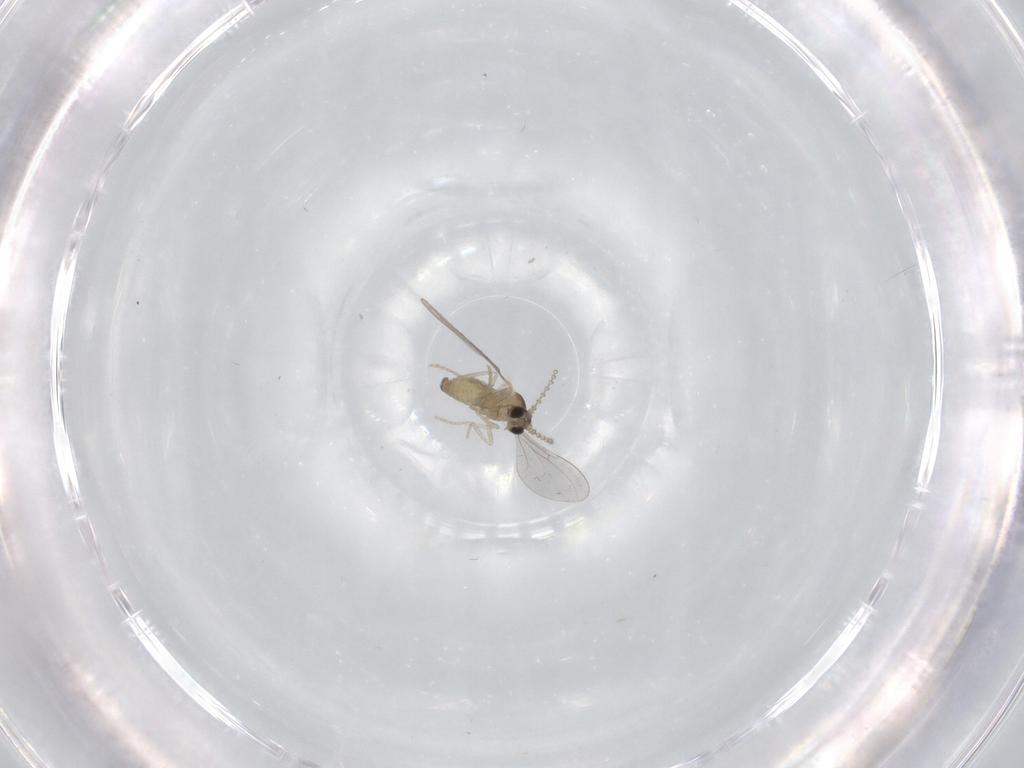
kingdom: Animalia
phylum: Arthropoda
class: Insecta
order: Diptera
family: Cecidomyiidae
